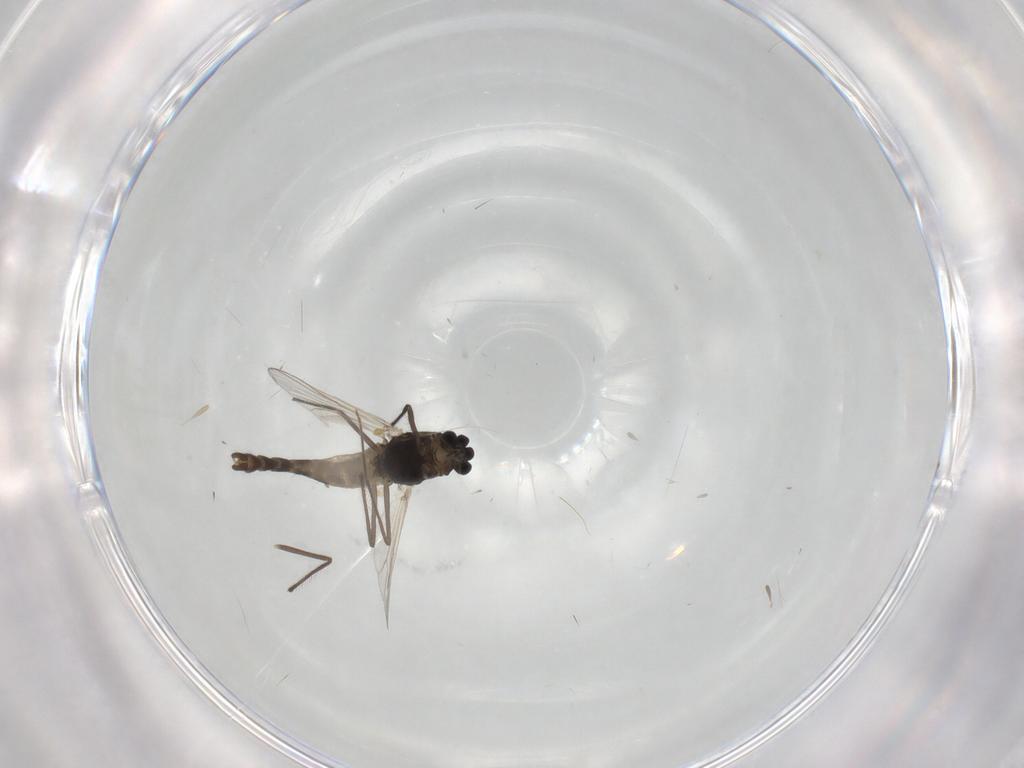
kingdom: Animalia
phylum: Arthropoda
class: Insecta
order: Diptera
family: Chironomidae
